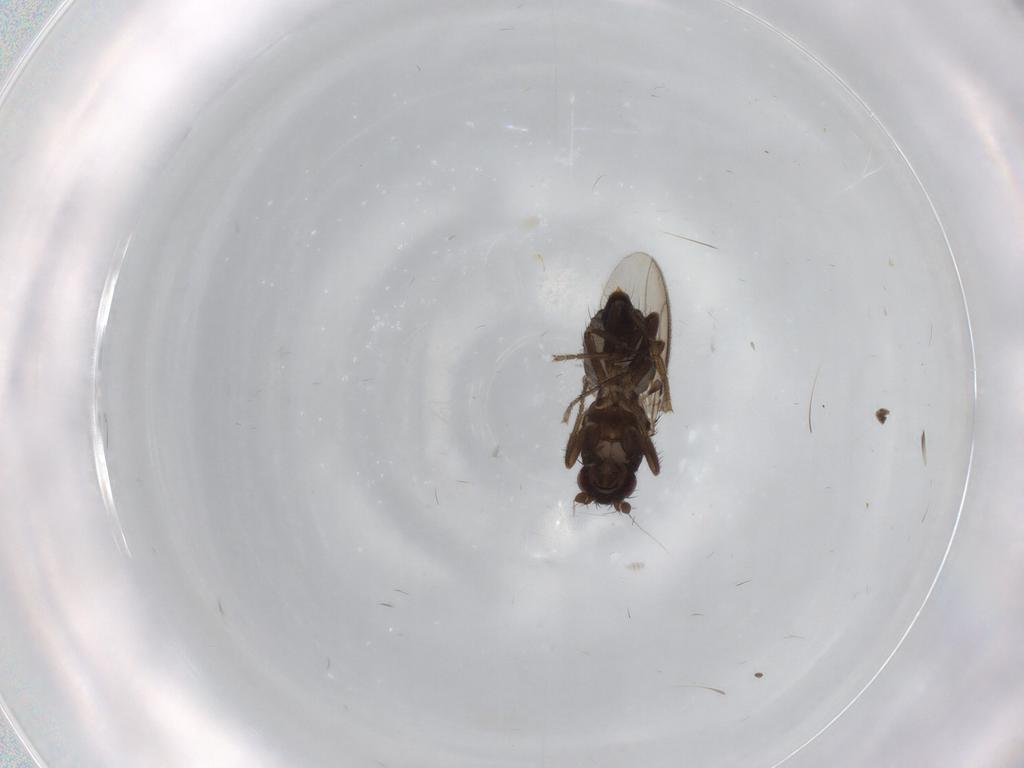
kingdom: Animalia
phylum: Arthropoda
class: Insecta
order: Diptera
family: Sphaeroceridae
